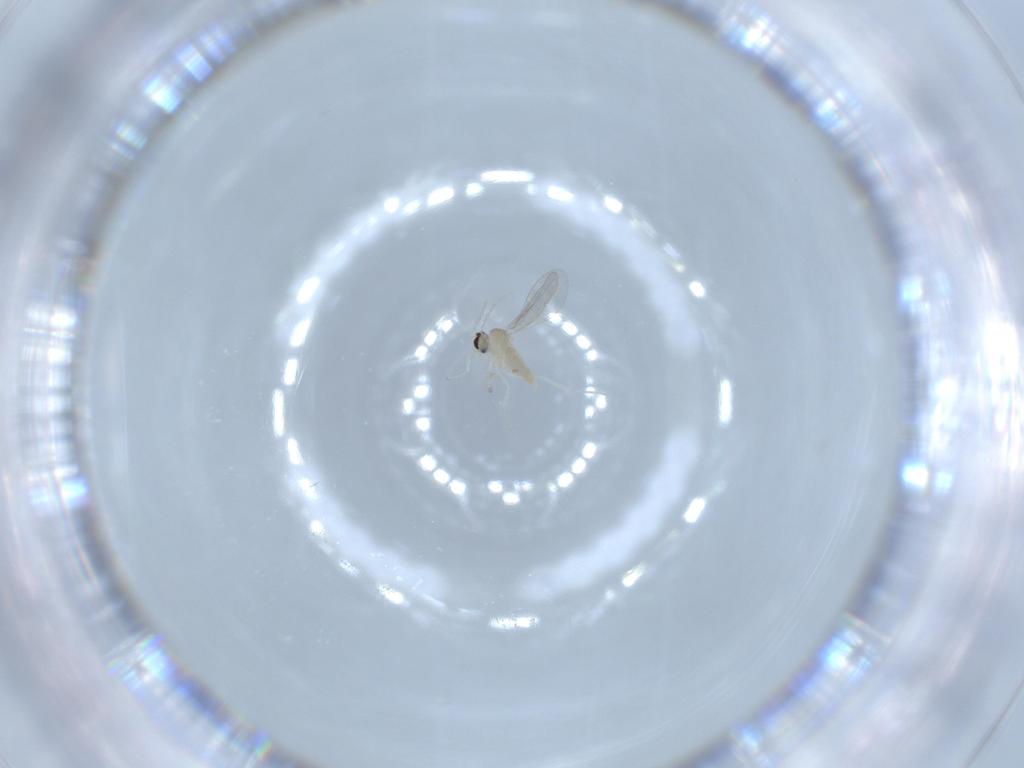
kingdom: Animalia
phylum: Arthropoda
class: Insecta
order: Diptera
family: Cecidomyiidae
